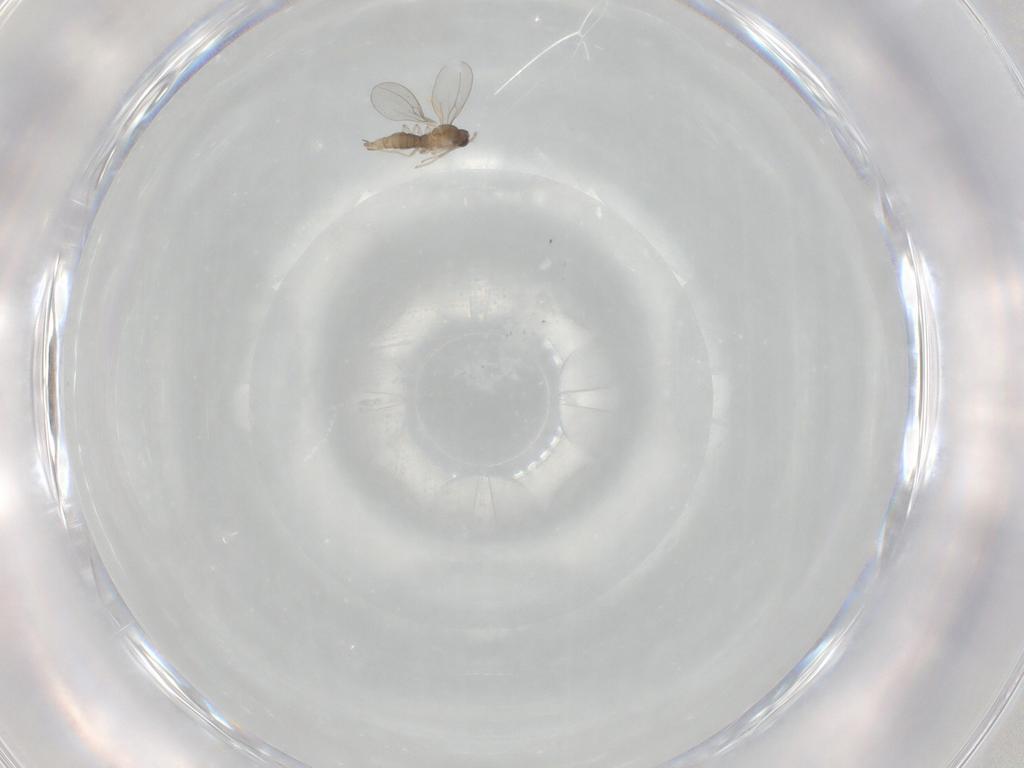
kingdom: Animalia
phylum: Arthropoda
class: Insecta
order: Diptera
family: Cecidomyiidae
